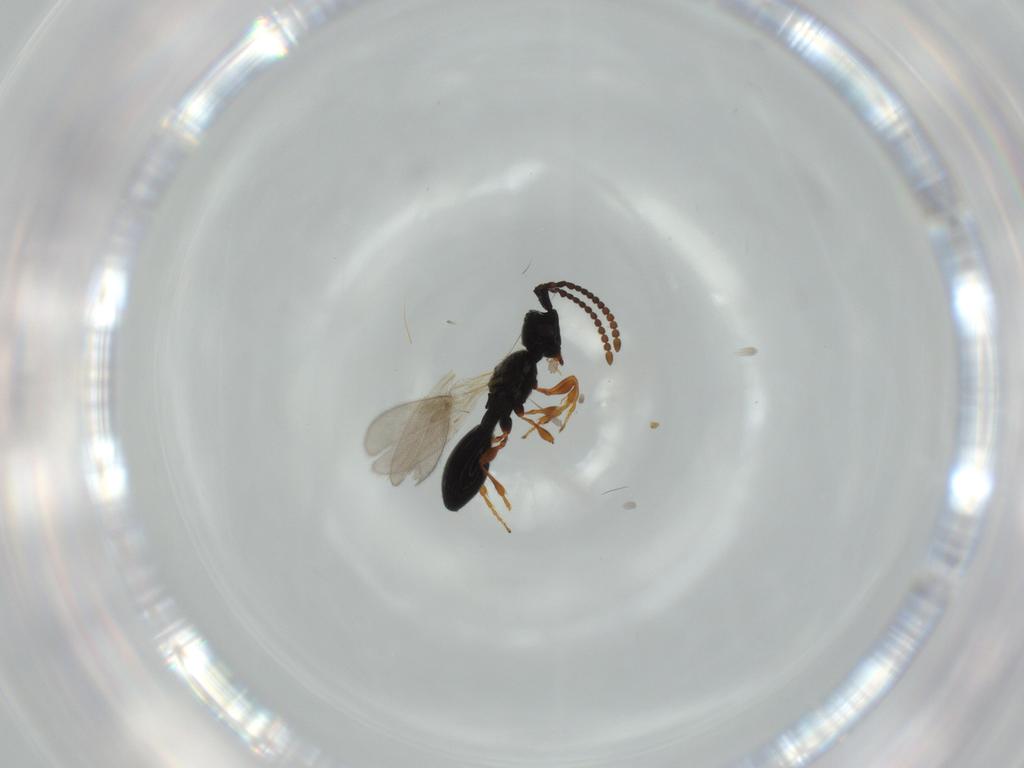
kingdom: Animalia
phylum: Arthropoda
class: Insecta
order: Hymenoptera
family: Diapriidae
